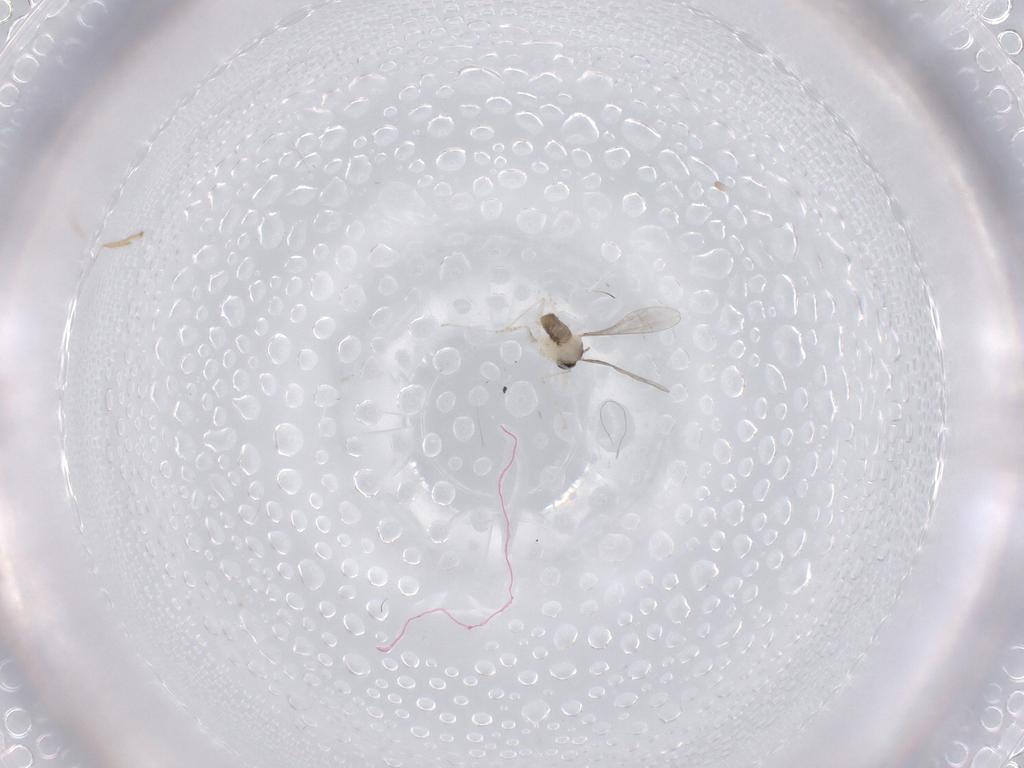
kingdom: Animalia
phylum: Arthropoda
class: Insecta
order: Diptera
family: Cecidomyiidae
